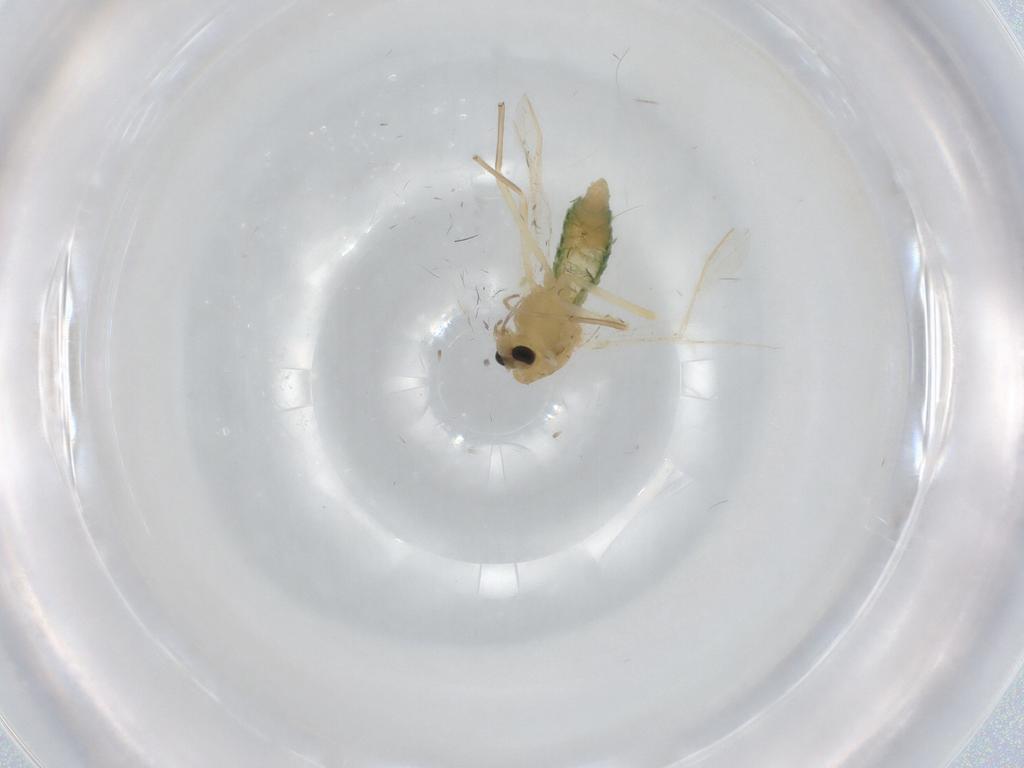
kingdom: Animalia
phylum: Arthropoda
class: Insecta
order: Diptera
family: Chironomidae
